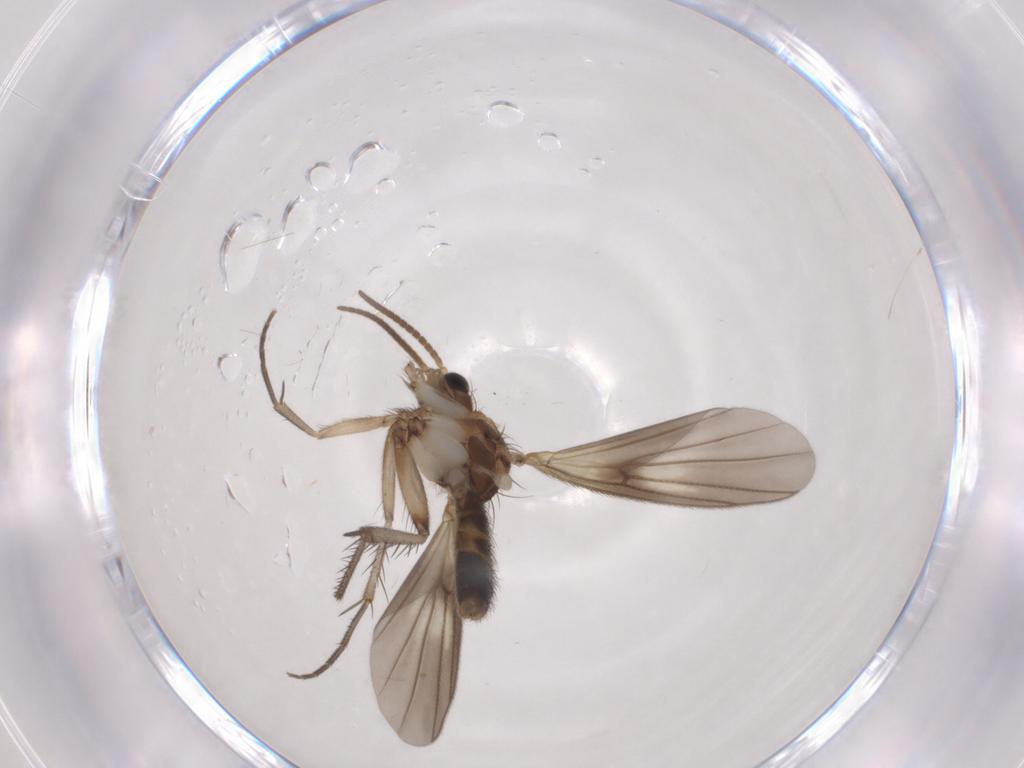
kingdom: Animalia
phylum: Arthropoda
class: Insecta
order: Diptera
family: Mycetophilidae
